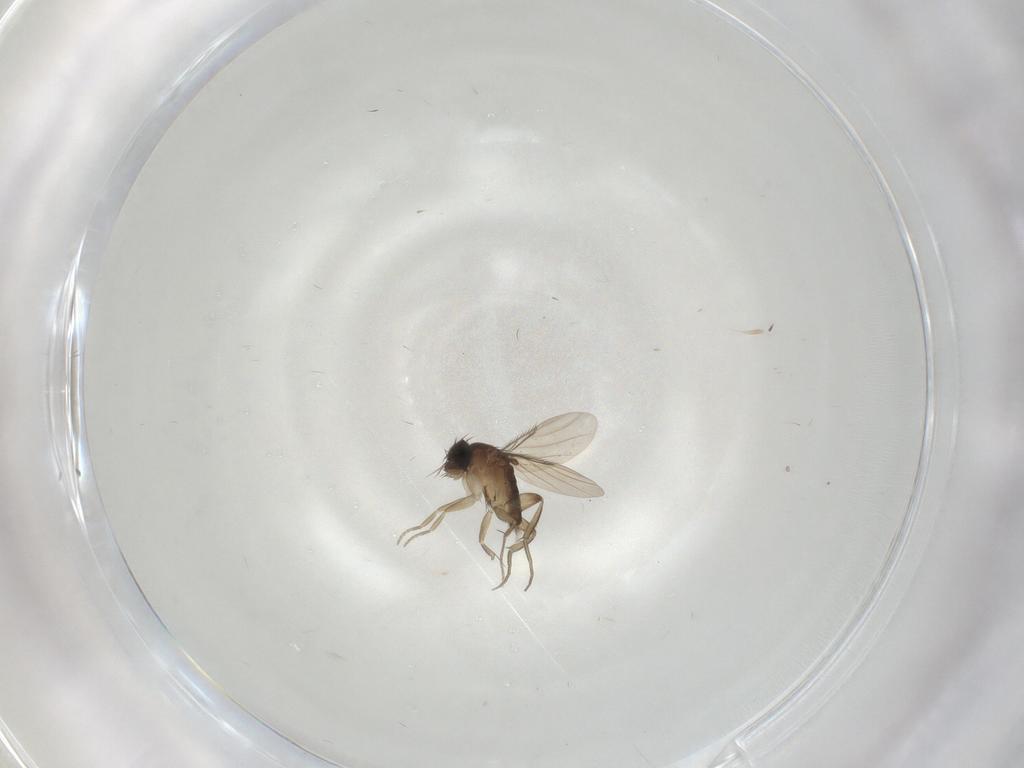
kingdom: Animalia
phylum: Arthropoda
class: Insecta
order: Diptera
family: Phoridae
